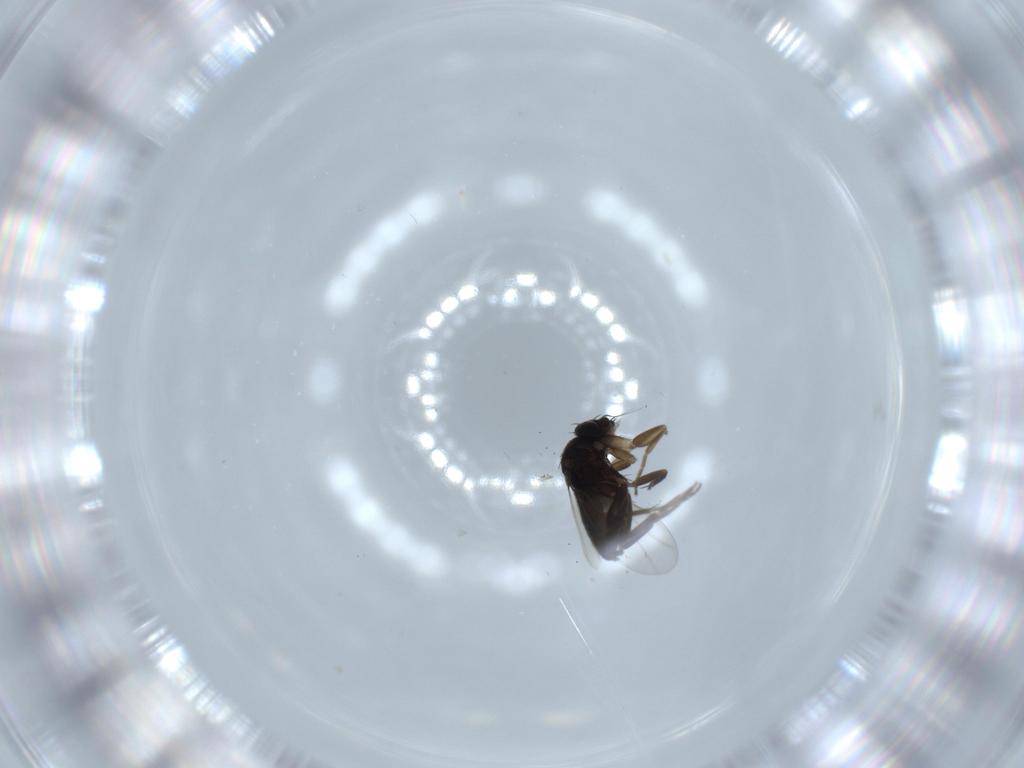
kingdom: Animalia
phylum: Arthropoda
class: Insecta
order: Diptera
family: Phoridae
